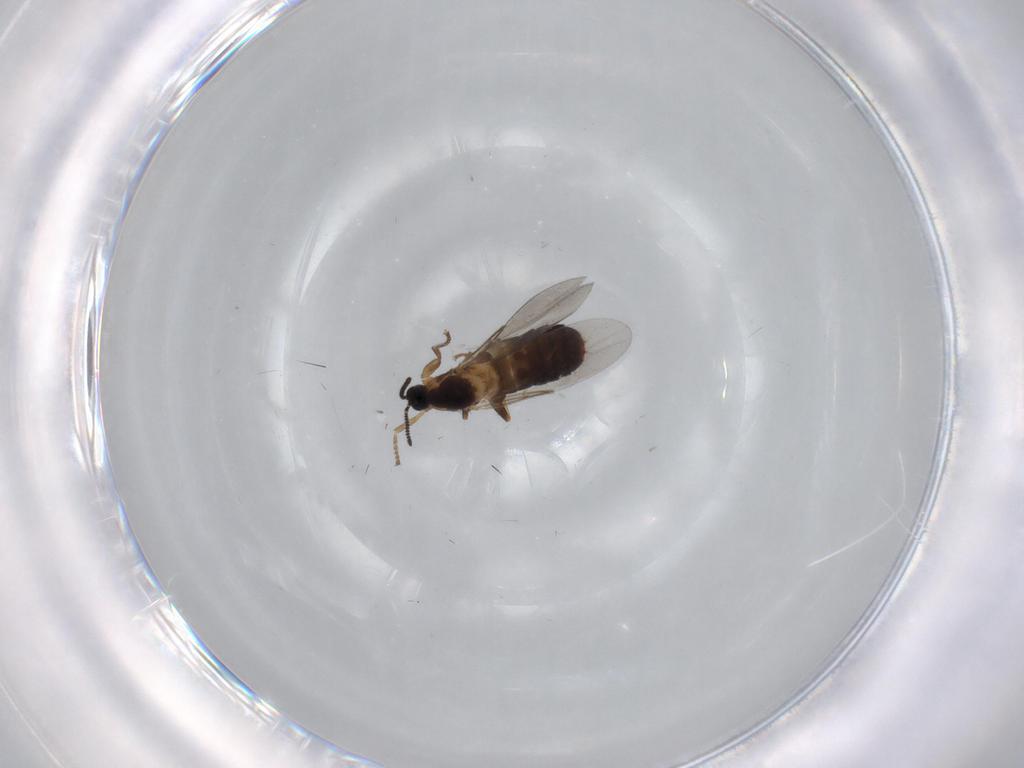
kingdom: Animalia
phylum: Arthropoda
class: Insecta
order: Diptera
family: Scatopsidae
